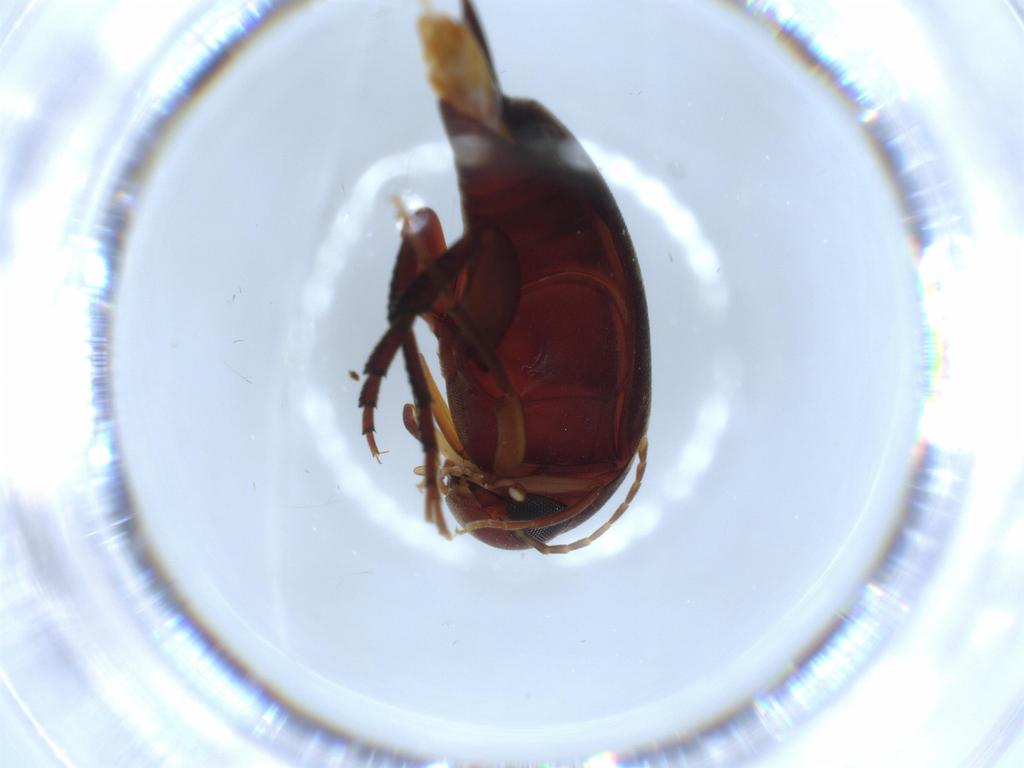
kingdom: Animalia
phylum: Arthropoda
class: Insecta
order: Coleoptera
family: Mordellidae
